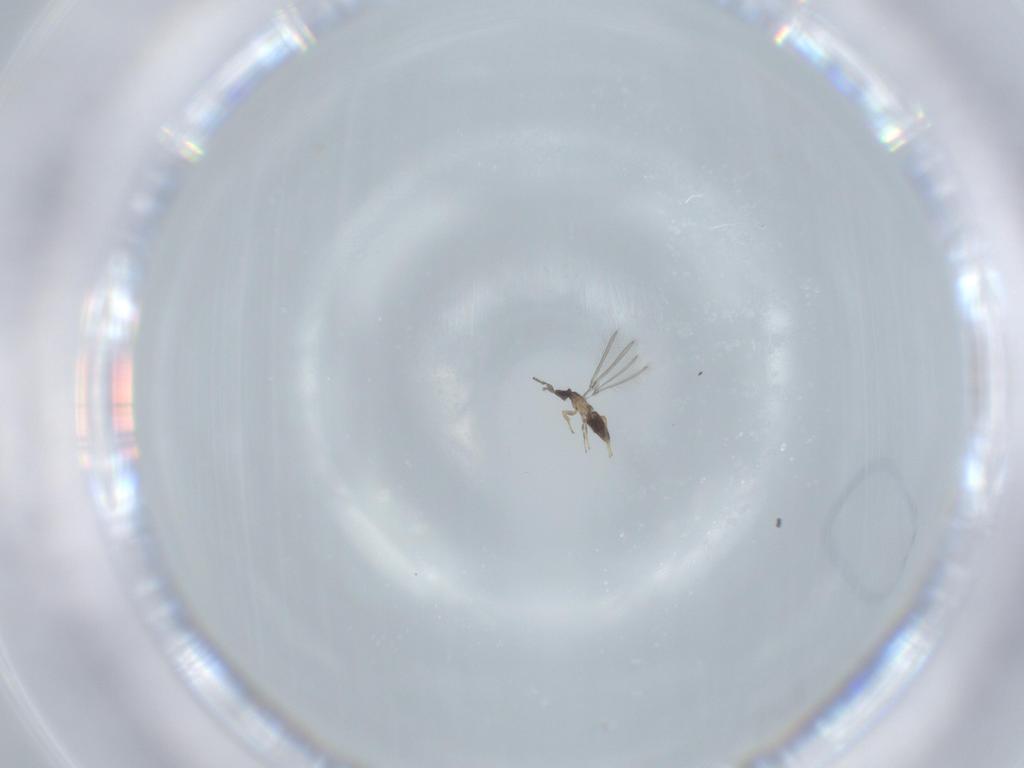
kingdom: Animalia
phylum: Arthropoda
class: Insecta
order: Hymenoptera
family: Mymaridae
